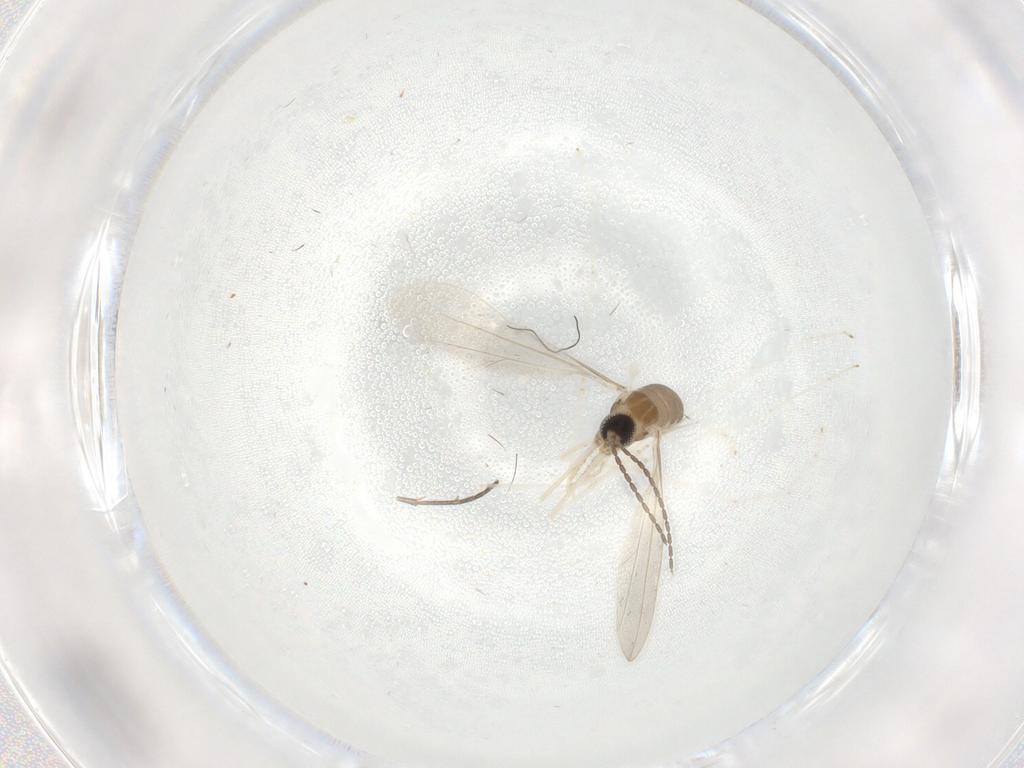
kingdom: Animalia
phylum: Arthropoda
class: Insecta
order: Diptera
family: Cecidomyiidae
